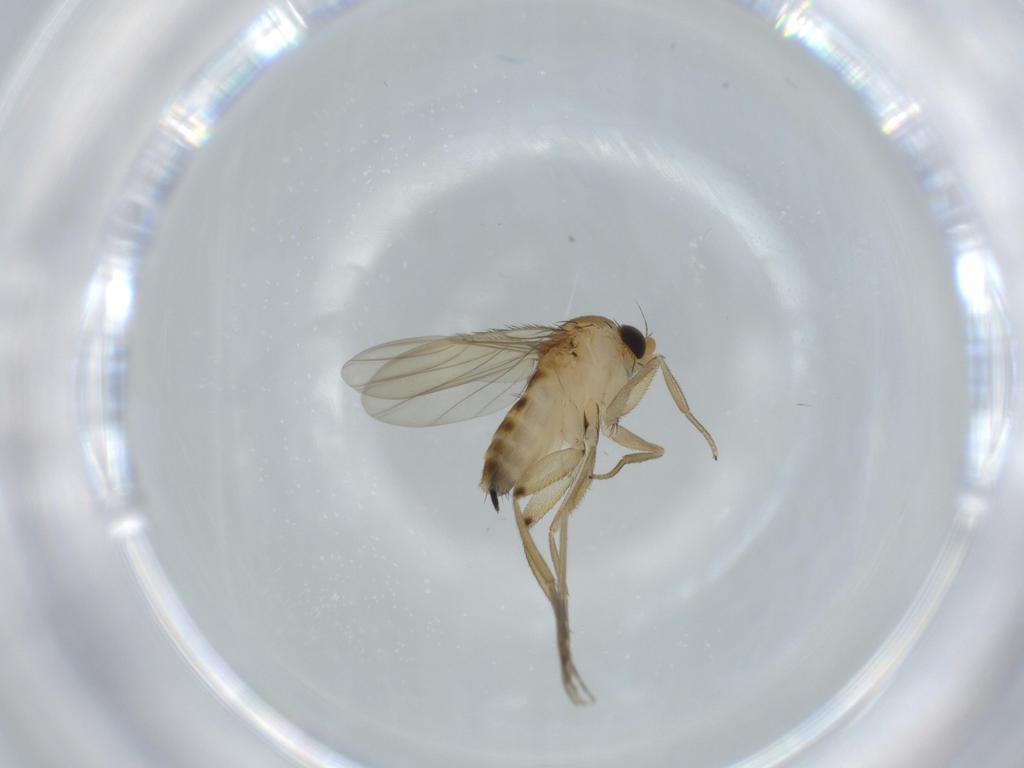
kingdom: Animalia
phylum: Arthropoda
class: Insecta
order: Diptera
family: Phoridae
